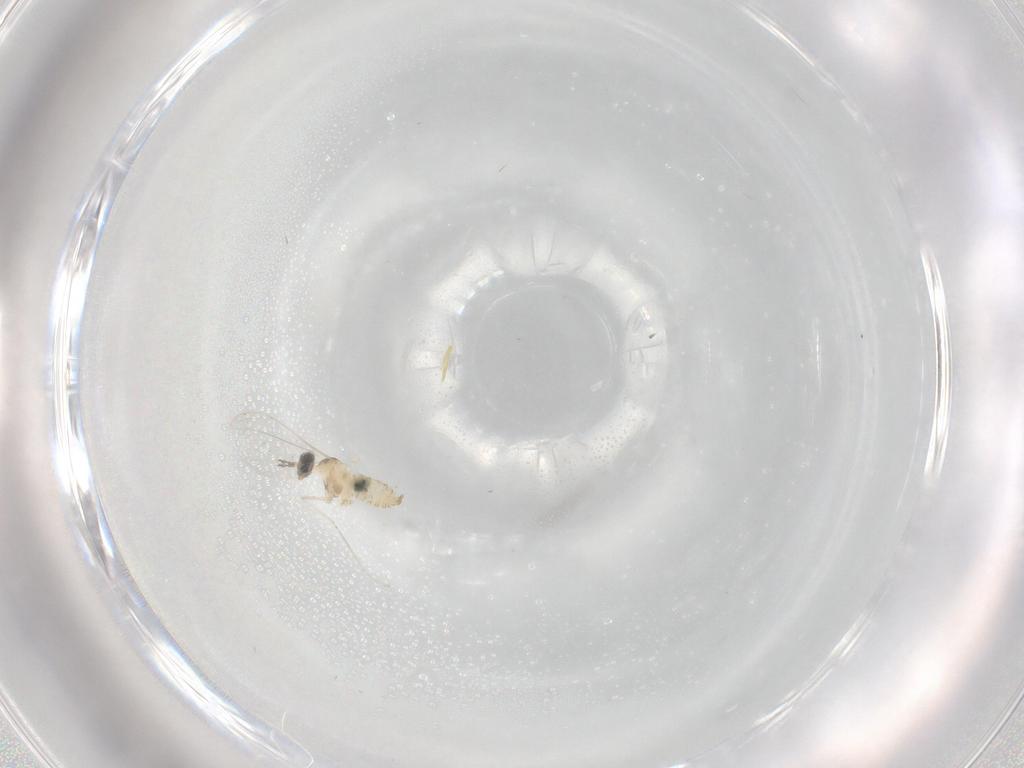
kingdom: Animalia
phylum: Arthropoda
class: Insecta
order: Diptera
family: Cecidomyiidae
